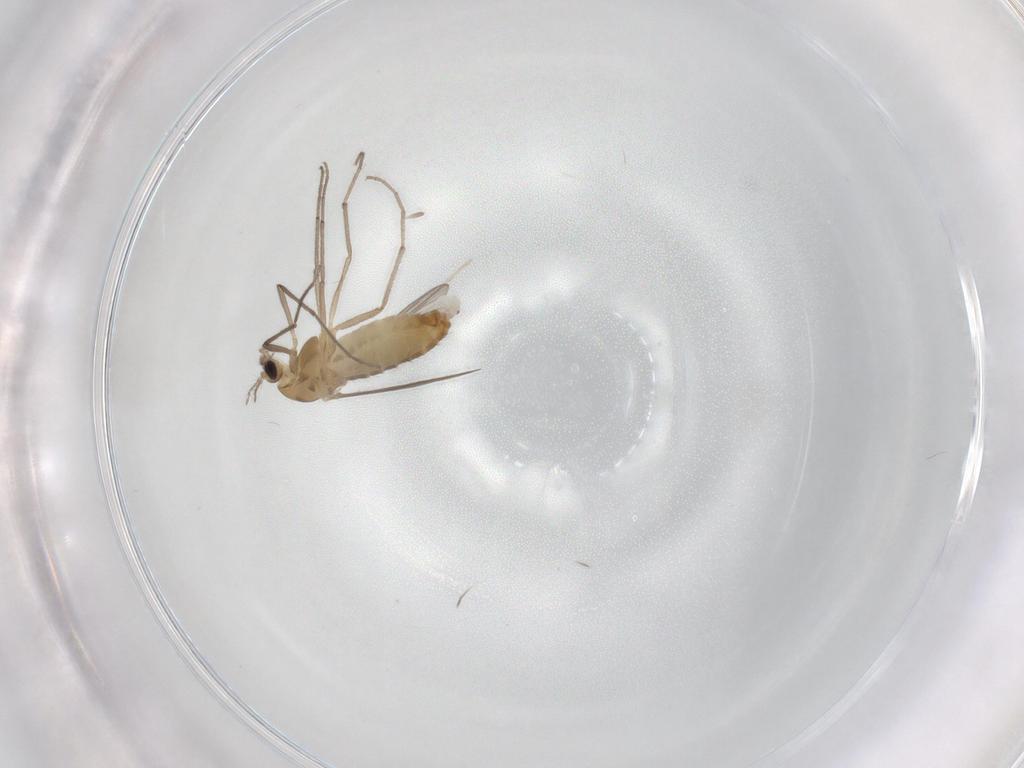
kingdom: Animalia
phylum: Arthropoda
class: Insecta
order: Diptera
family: Chironomidae
